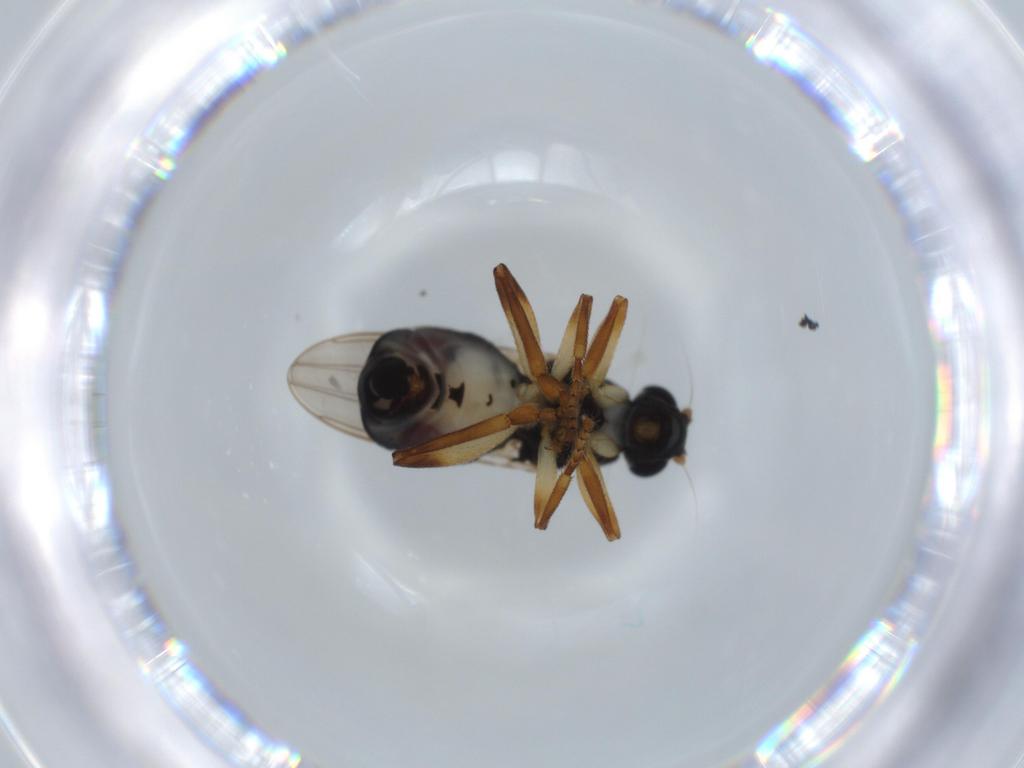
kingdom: Animalia
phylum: Arthropoda
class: Insecta
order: Diptera
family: Sphaeroceridae
